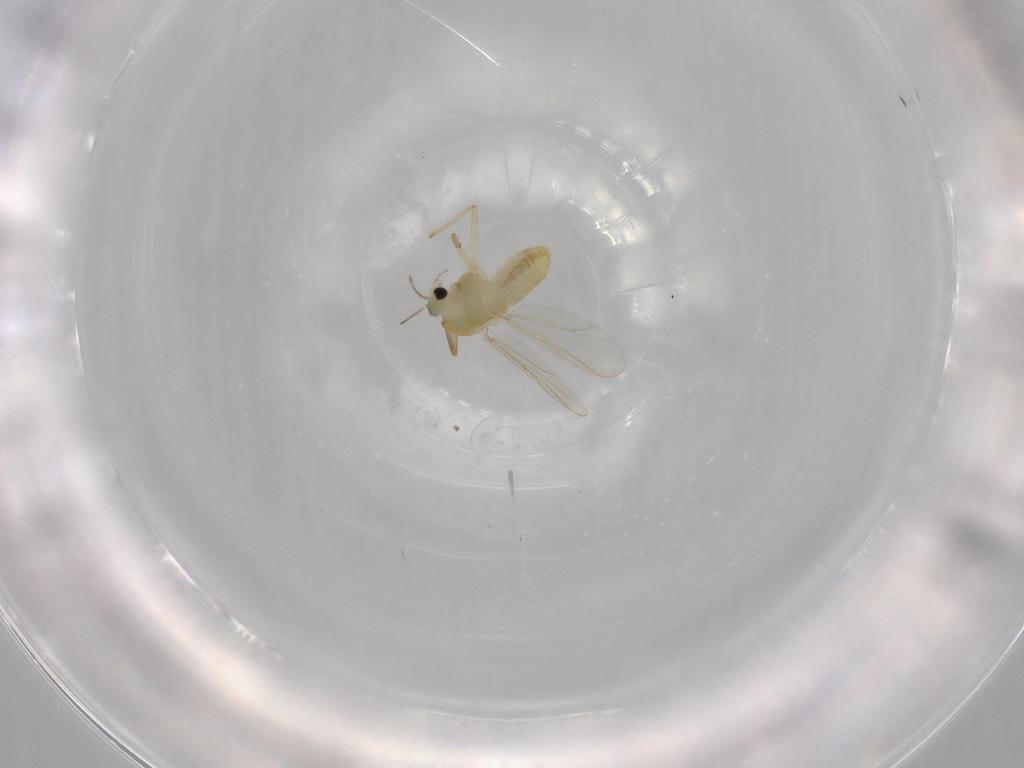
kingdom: Animalia
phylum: Arthropoda
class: Insecta
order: Diptera
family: Chironomidae
